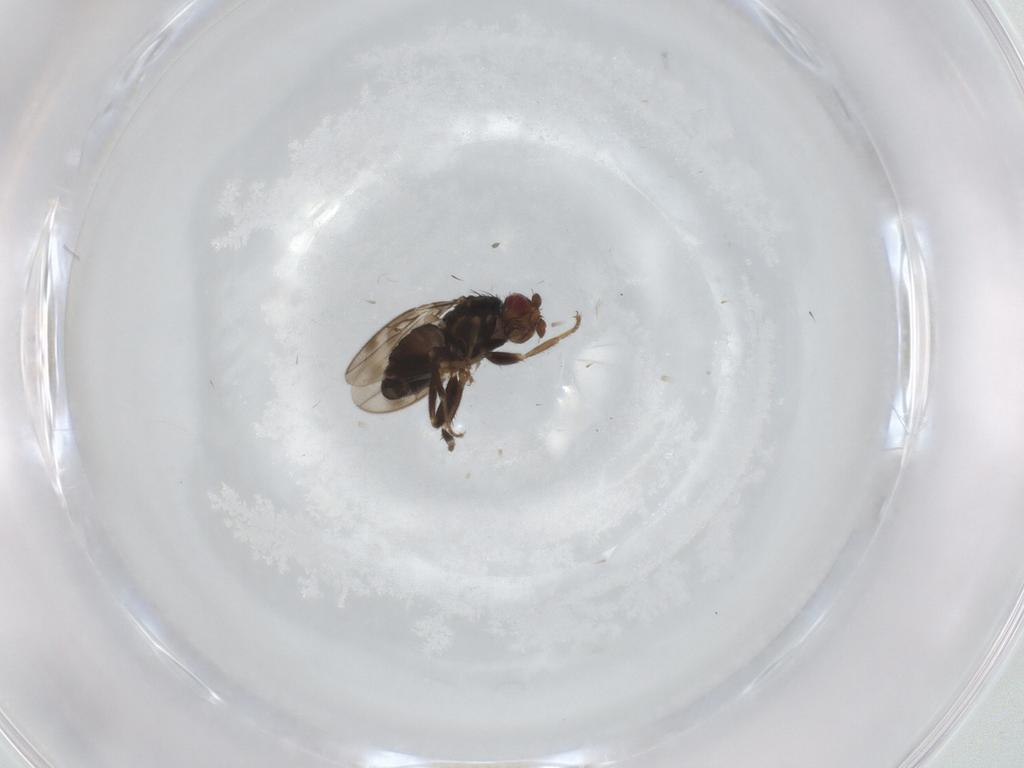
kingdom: Animalia
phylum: Arthropoda
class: Insecta
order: Diptera
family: Sphaeroceridae
